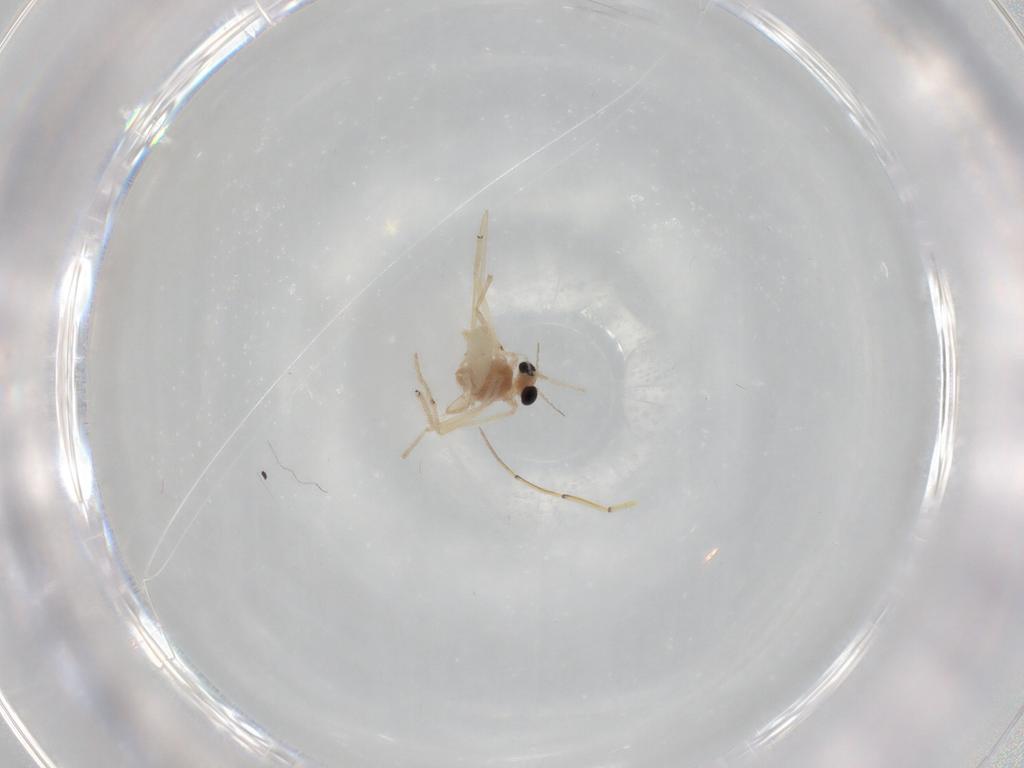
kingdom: Animalia
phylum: Arthropoda
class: Insecta
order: Diptera
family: Chironomidae
